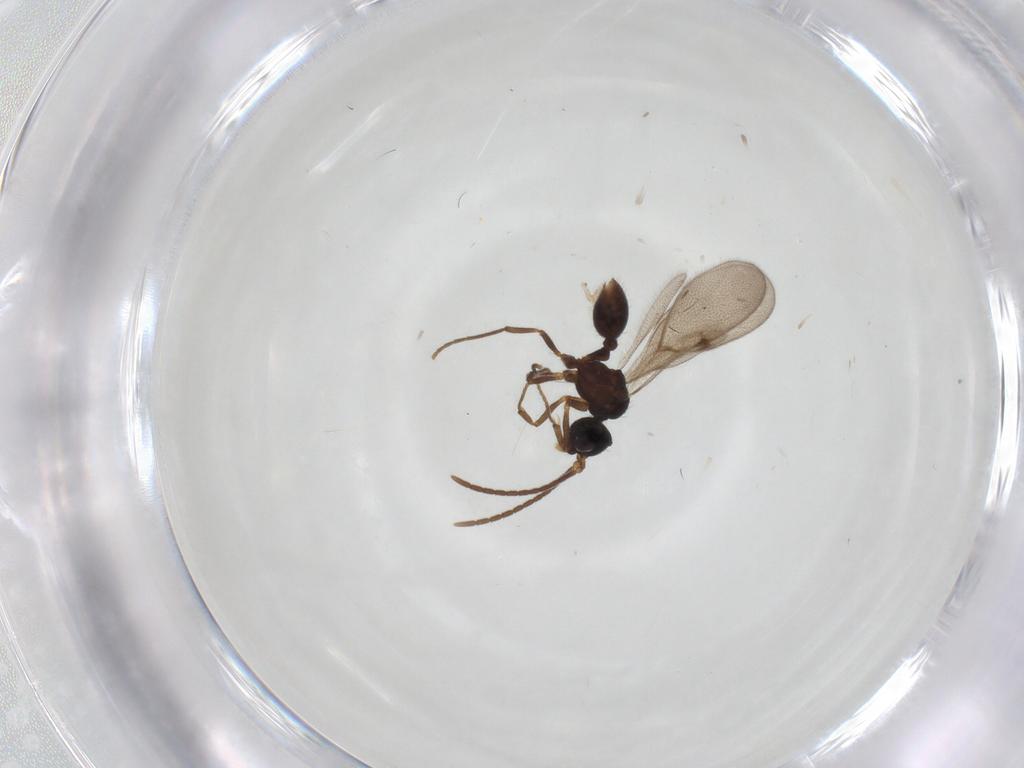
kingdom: Animalia
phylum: Arthropoda
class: Insecta
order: Hymenoptera
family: Formicidae
